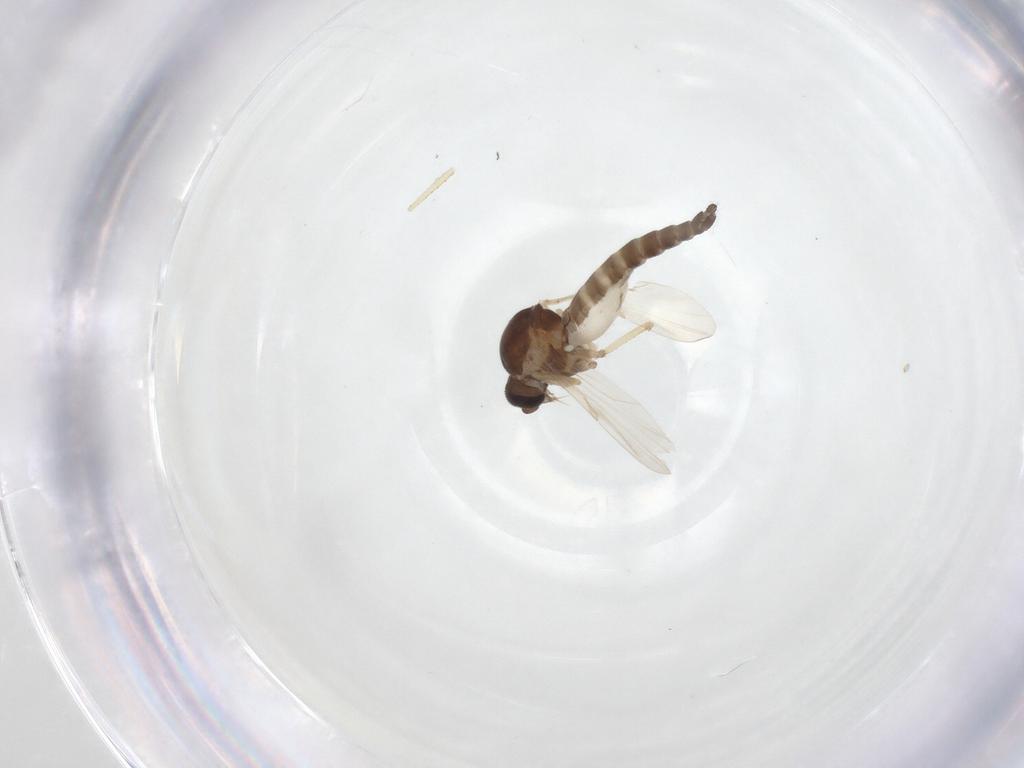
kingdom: Animalia
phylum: Arthropoda
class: Insecta
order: Diptera
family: Ceratopogonidae
